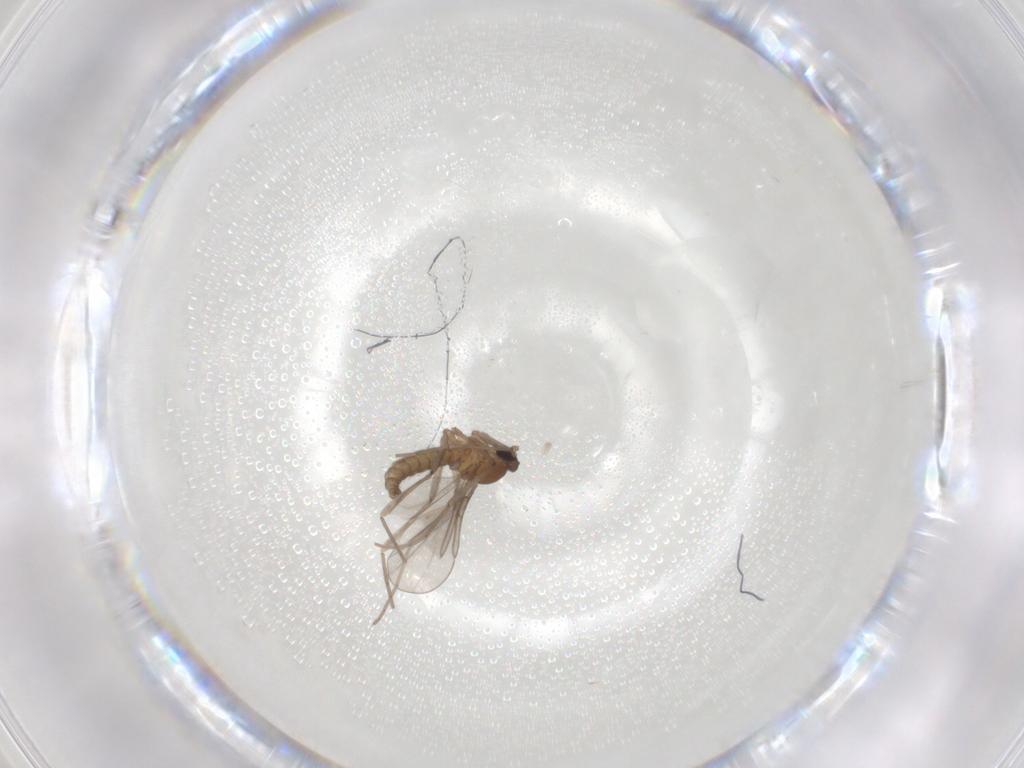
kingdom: Animalia
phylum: Arthropoda
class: Insecta
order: Diptera
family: Cecidomyiidae
